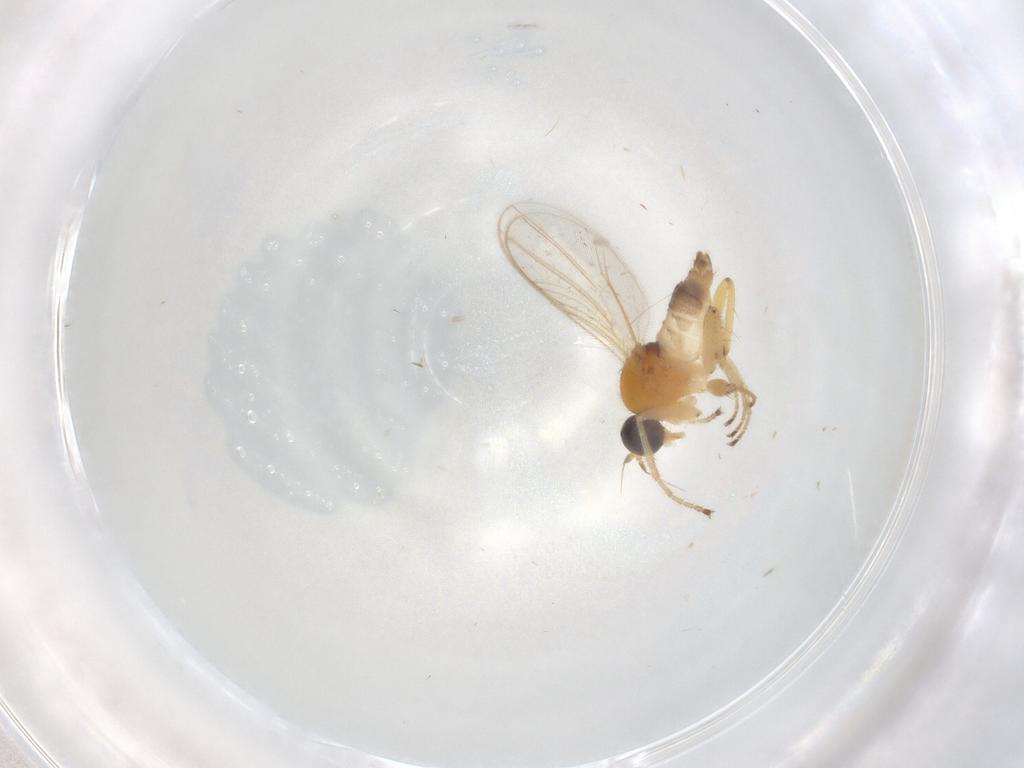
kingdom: Animalia
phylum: Arthropoda
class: Insecta
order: Diptera
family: Hybotidae
